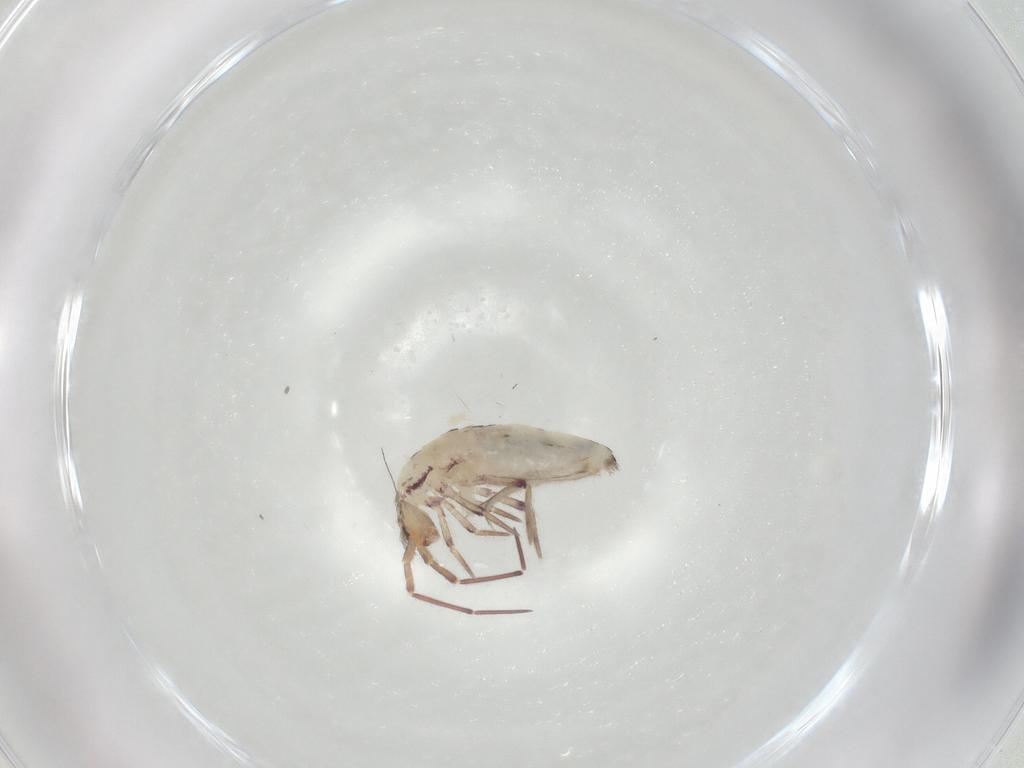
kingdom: Animalia
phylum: Arthropoda
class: Collembola
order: Entomobryomorpha
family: Entomobryidae
